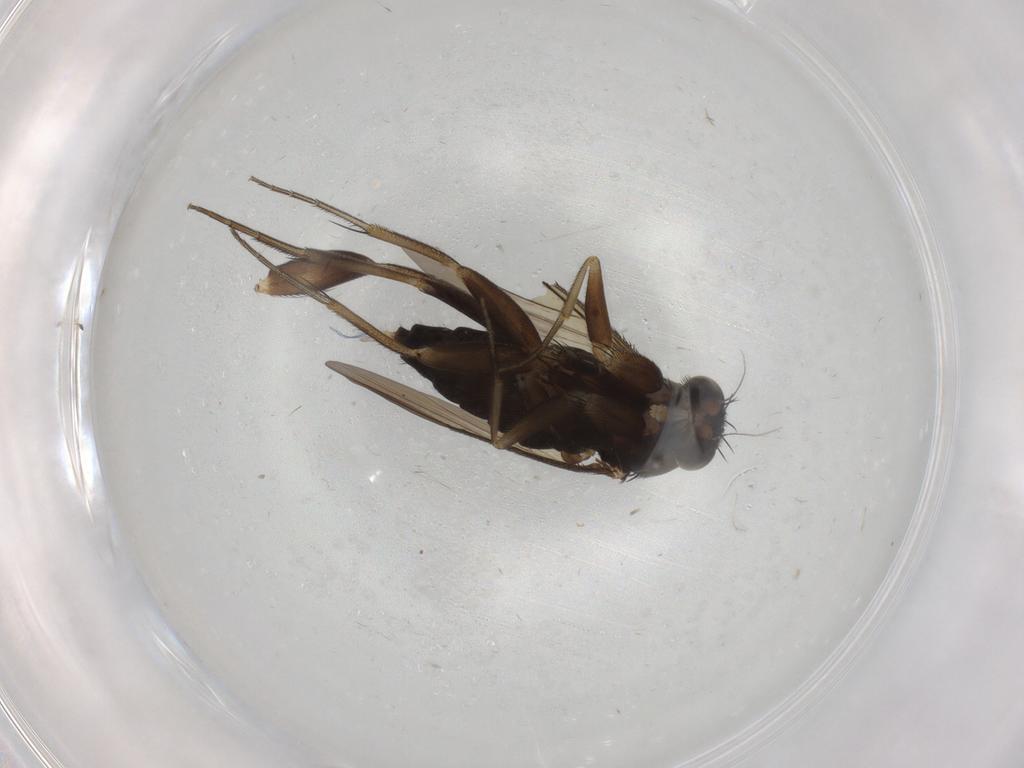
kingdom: Animalia
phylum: Arthropoda
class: Insecta
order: Diptera
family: Phoridae
